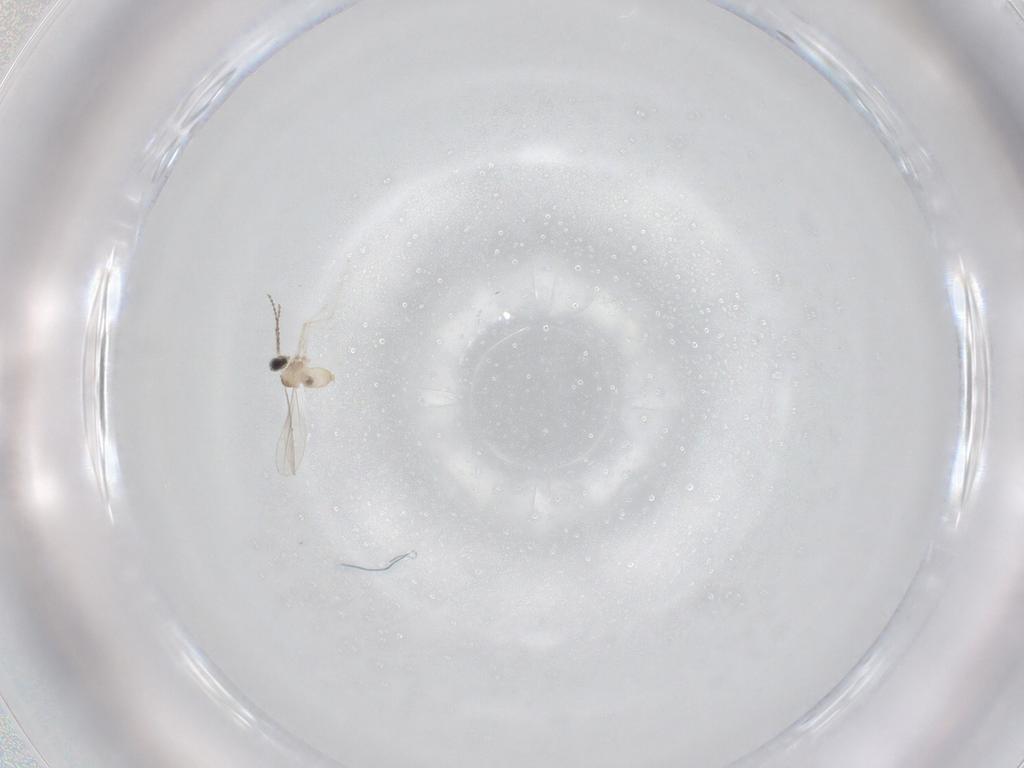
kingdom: Animalia
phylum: Arthropoda
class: Insecta
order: Diptera
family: Cecidomyiidae
